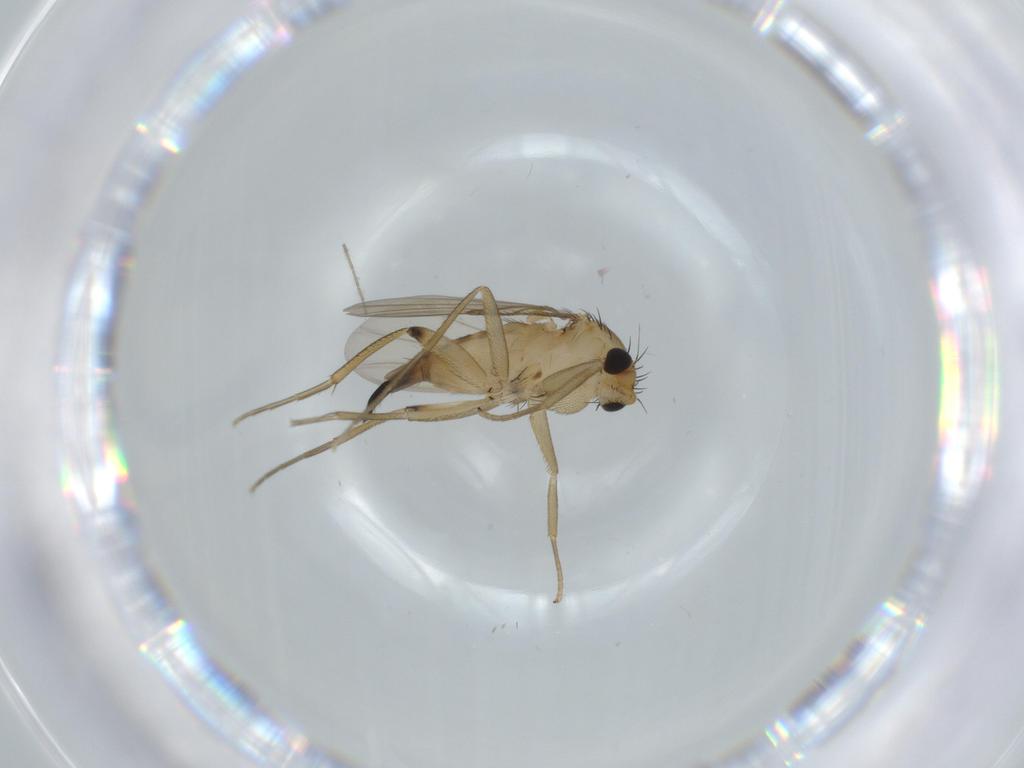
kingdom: Animalia
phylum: Arthropoda
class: Insecta
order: Diptera
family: Phoridae
